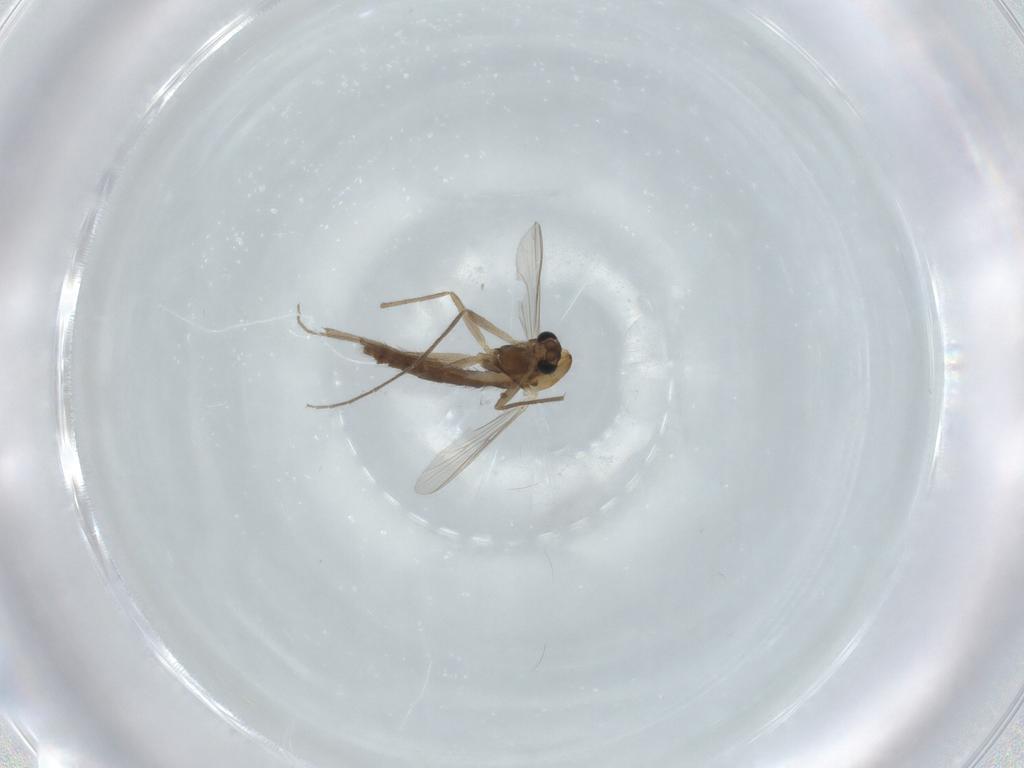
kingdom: Animalia
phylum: Arthropoda
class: Insecta
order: Diptera
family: Chironomidae
